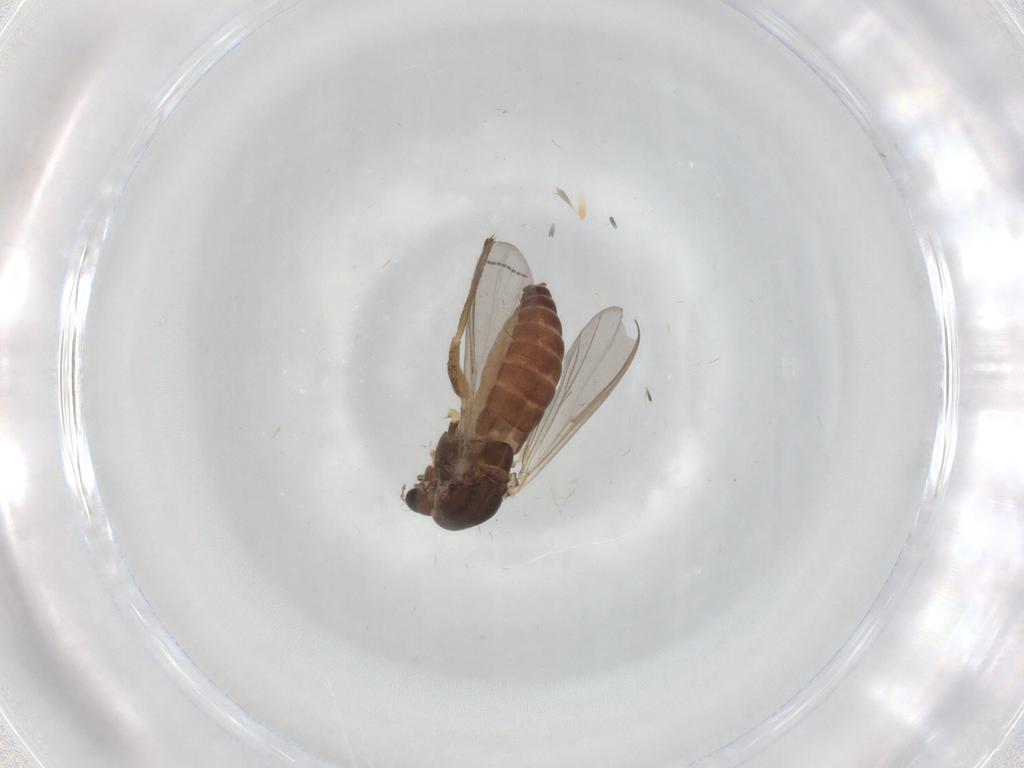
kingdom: Animalia
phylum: Arthropoda
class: Insecta
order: Diptera
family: Chironomidae
